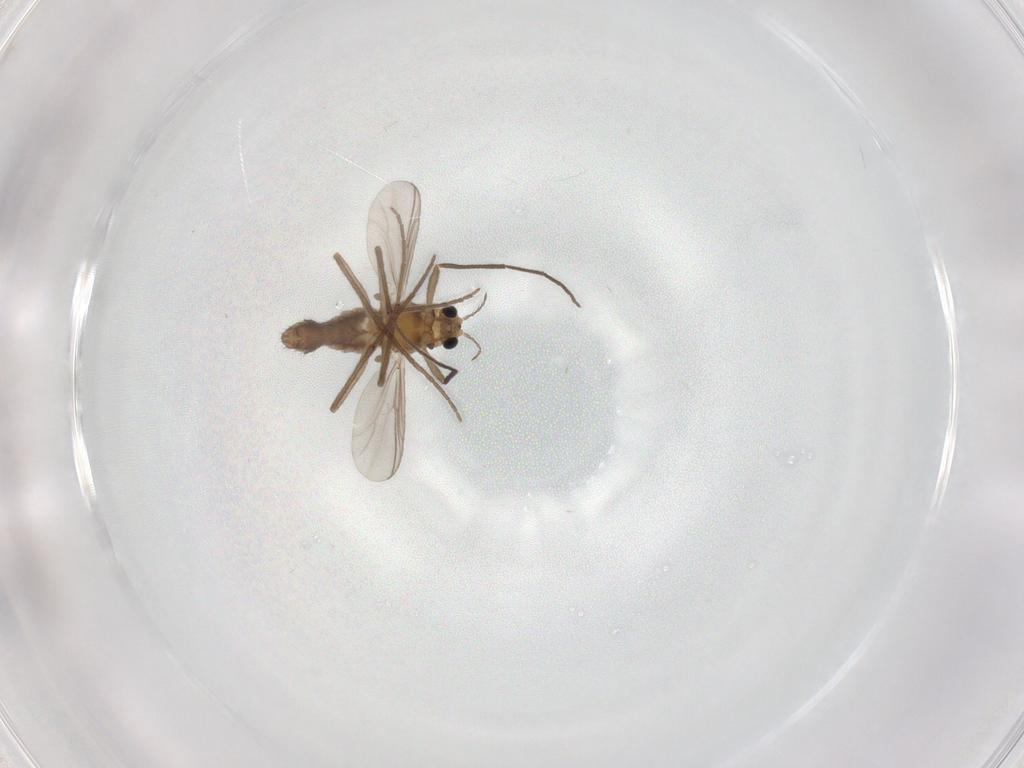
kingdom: Animalia
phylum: Arthropoda
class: Insecta
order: Diptera
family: Chironomidae
